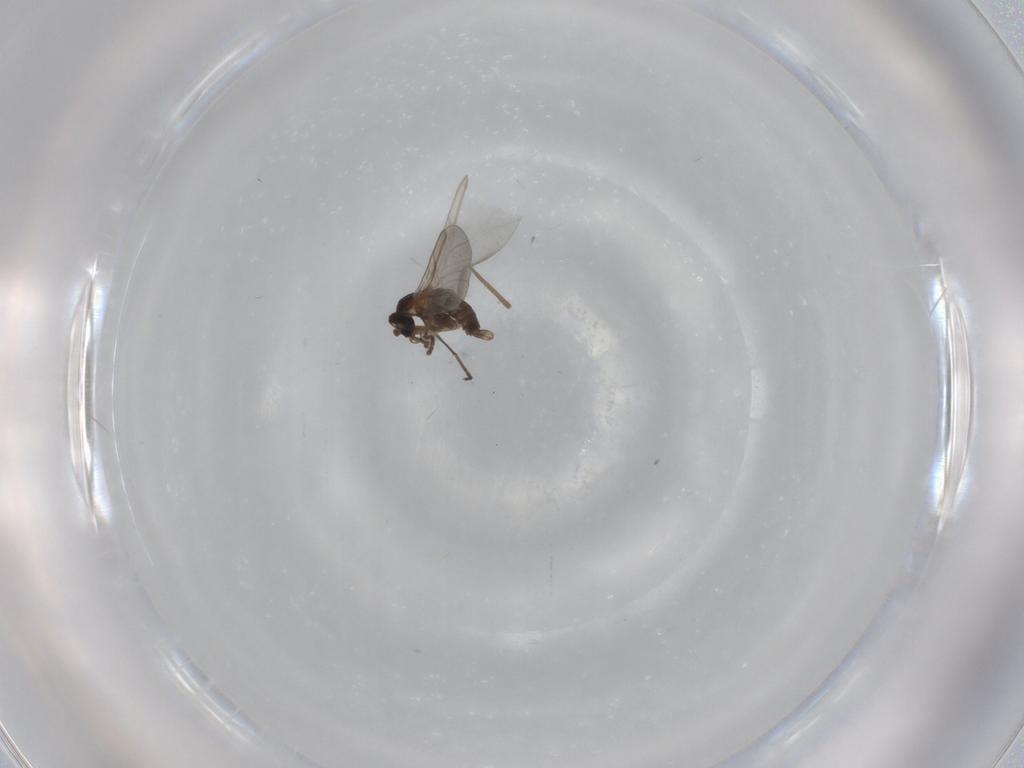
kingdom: Animalia
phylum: Arthropoda
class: Insecta
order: Diptera
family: Cecidomyiidae
